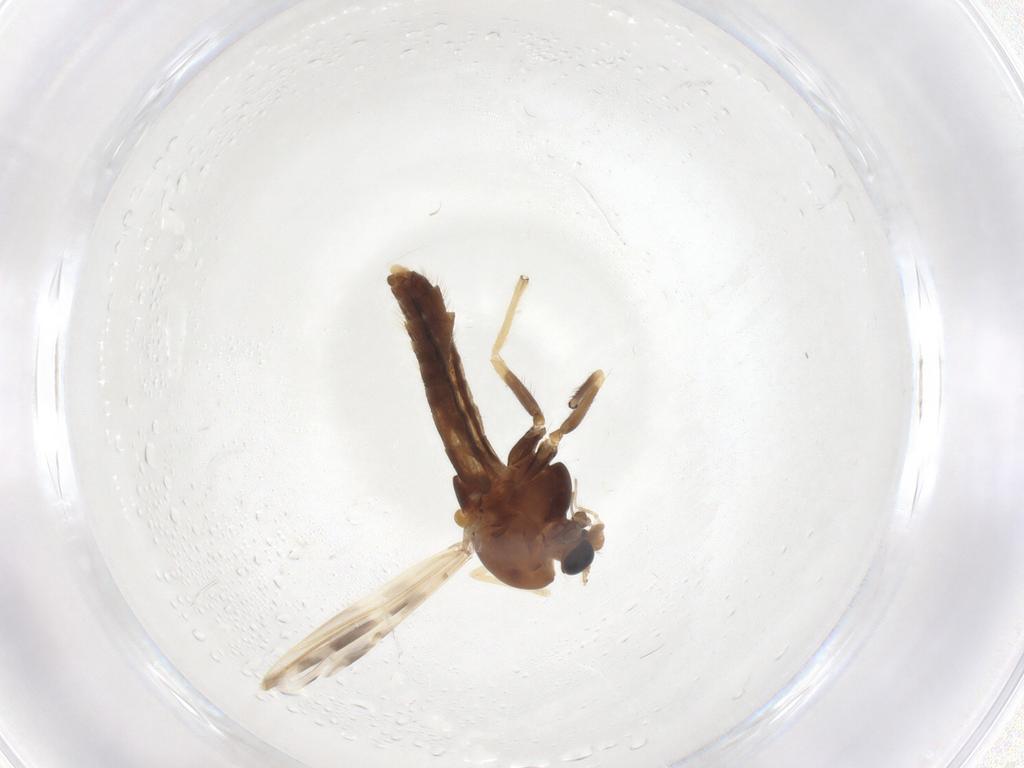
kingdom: Animalia
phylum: Arthropoda
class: Insecta
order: Diptera
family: Chironomidae
